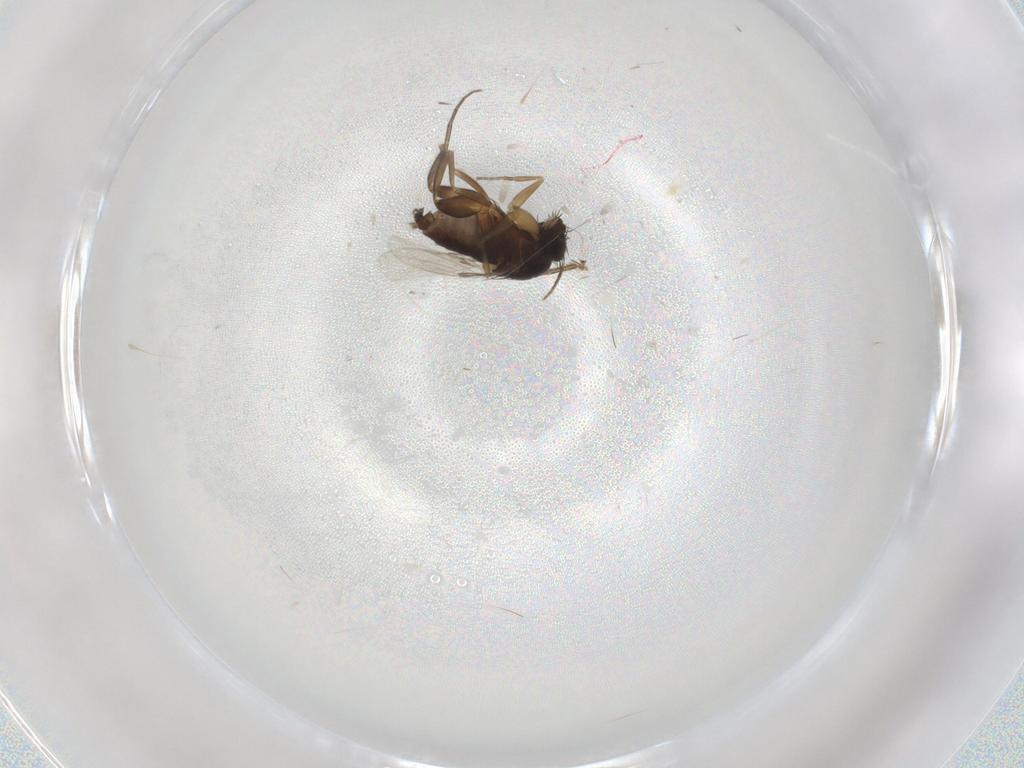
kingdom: Animalia
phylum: Arthropoda
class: Insecta
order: Diptera
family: Phoridae
